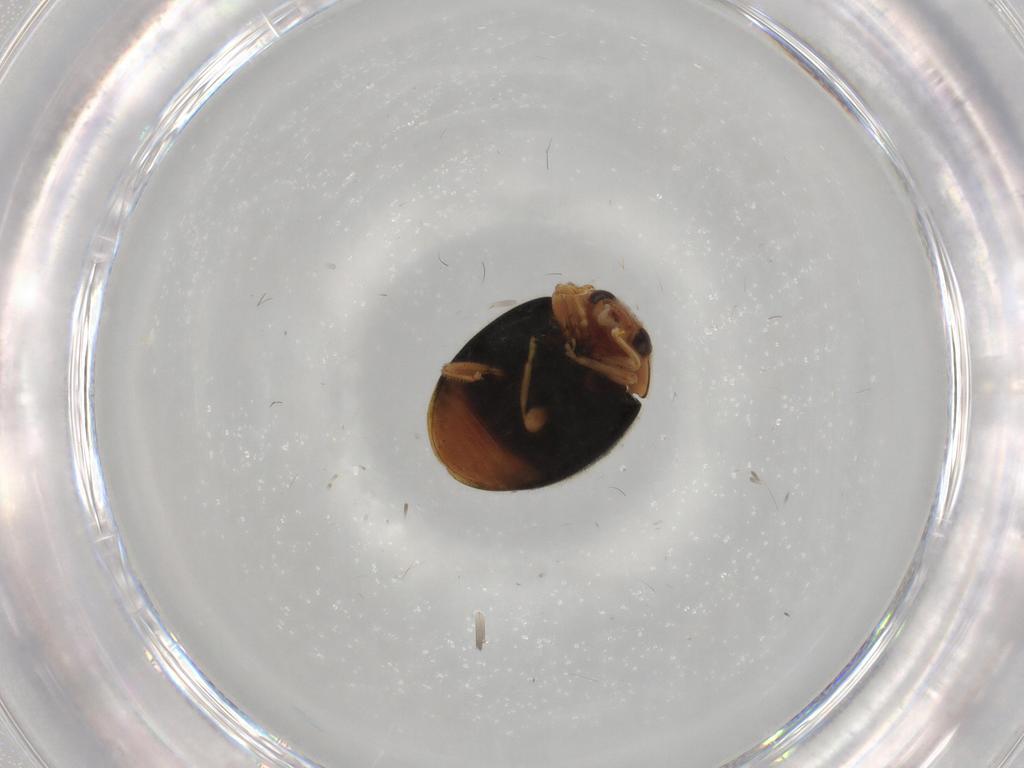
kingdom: Animalia
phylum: Arthropoda
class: Insecta
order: Coleoptera
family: Coccinellidae
